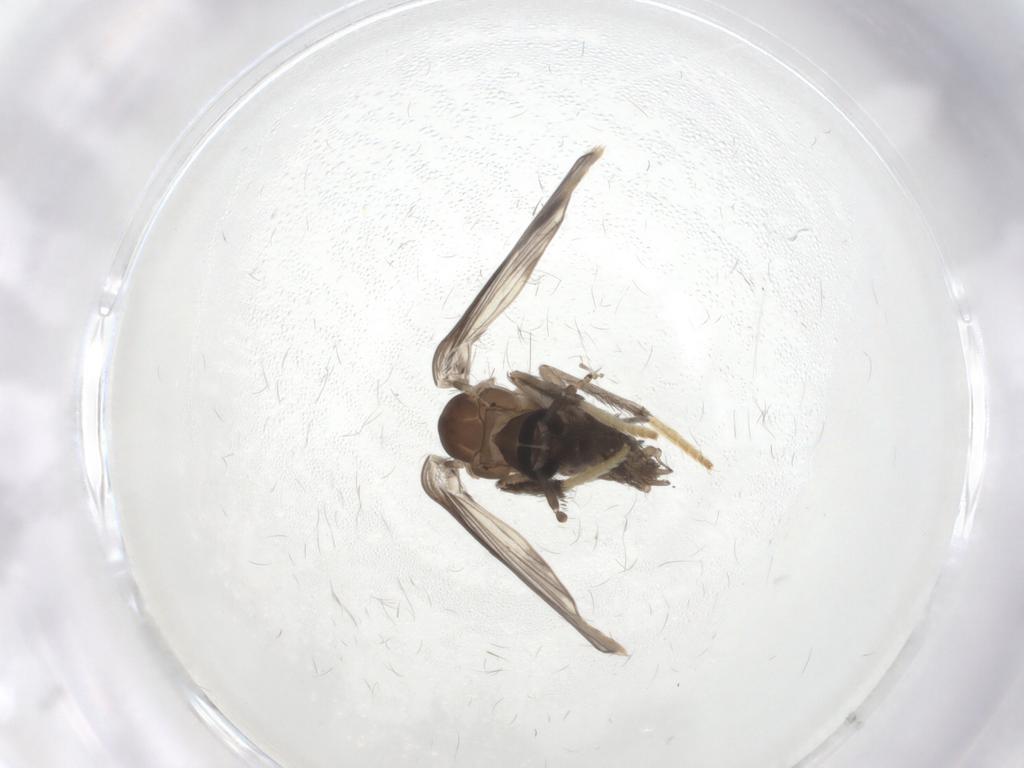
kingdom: Animalia
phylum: Arthropoda
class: Insecta
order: Diptera
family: Psychodidae
